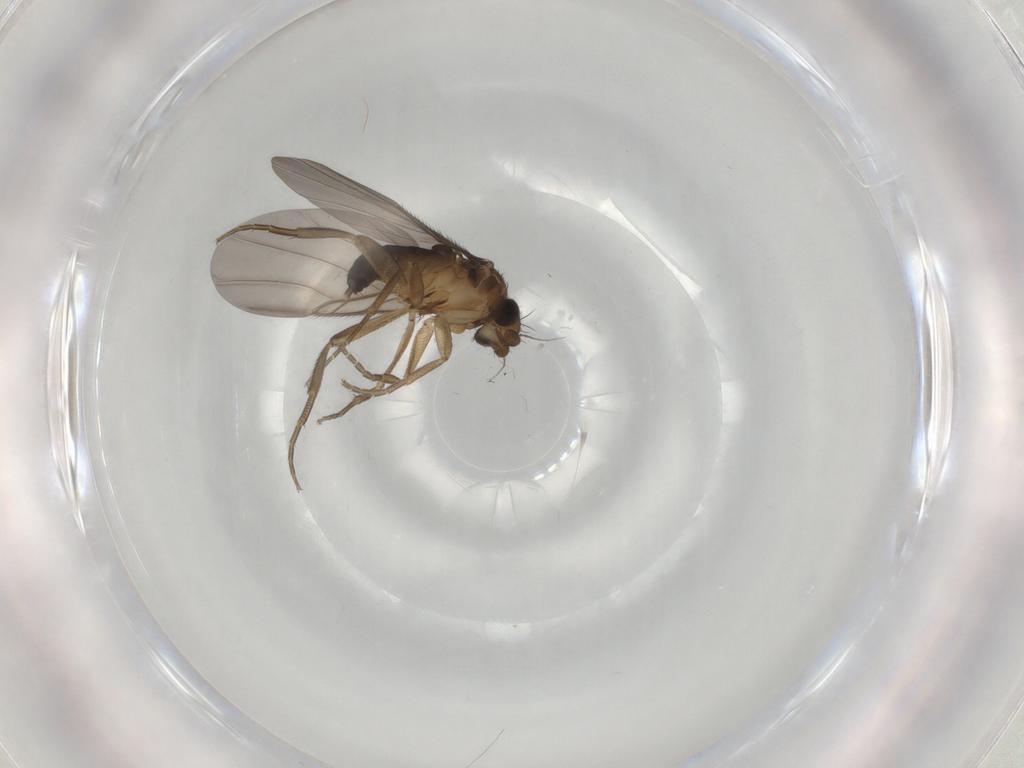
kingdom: Animalia
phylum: Arthropoda
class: Insecta
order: Diptera
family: Phoridae
